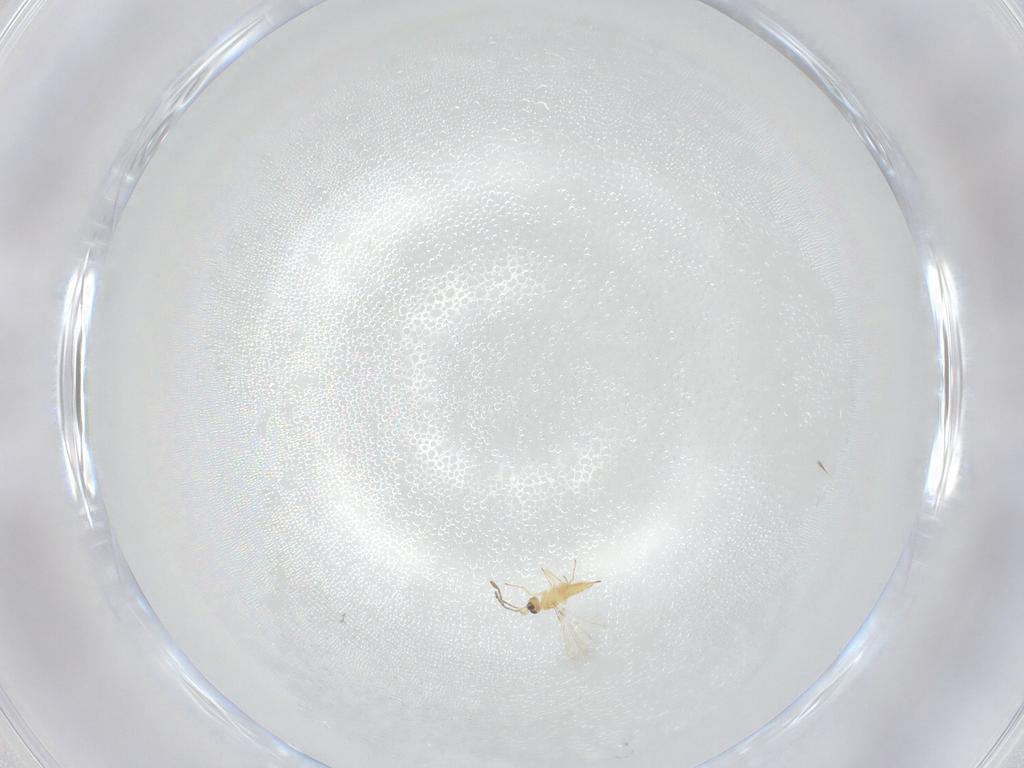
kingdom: Animalia
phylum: Arthropoda
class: Insecta
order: Hymenoptera
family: Mymaridae
